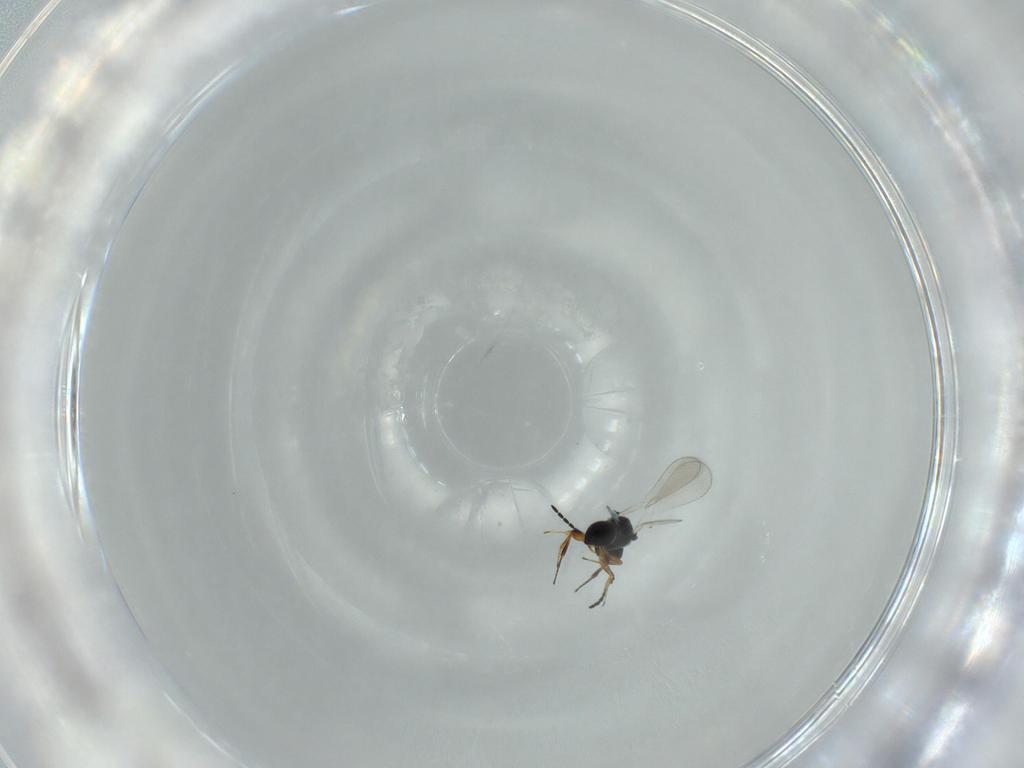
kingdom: Animalia
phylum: Arthropoda
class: Insecta
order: Hymenoptera
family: Platygastridae
